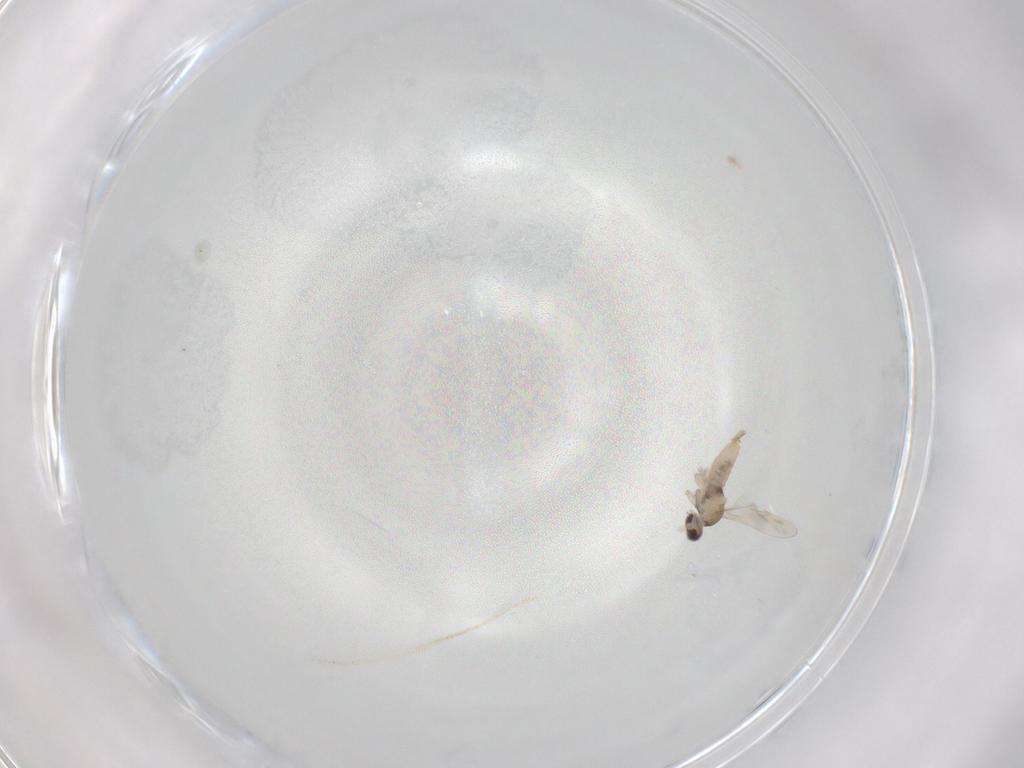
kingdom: Animalia
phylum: Arthropoda
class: Insecta
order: Diptera
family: Cecidomyiidae
